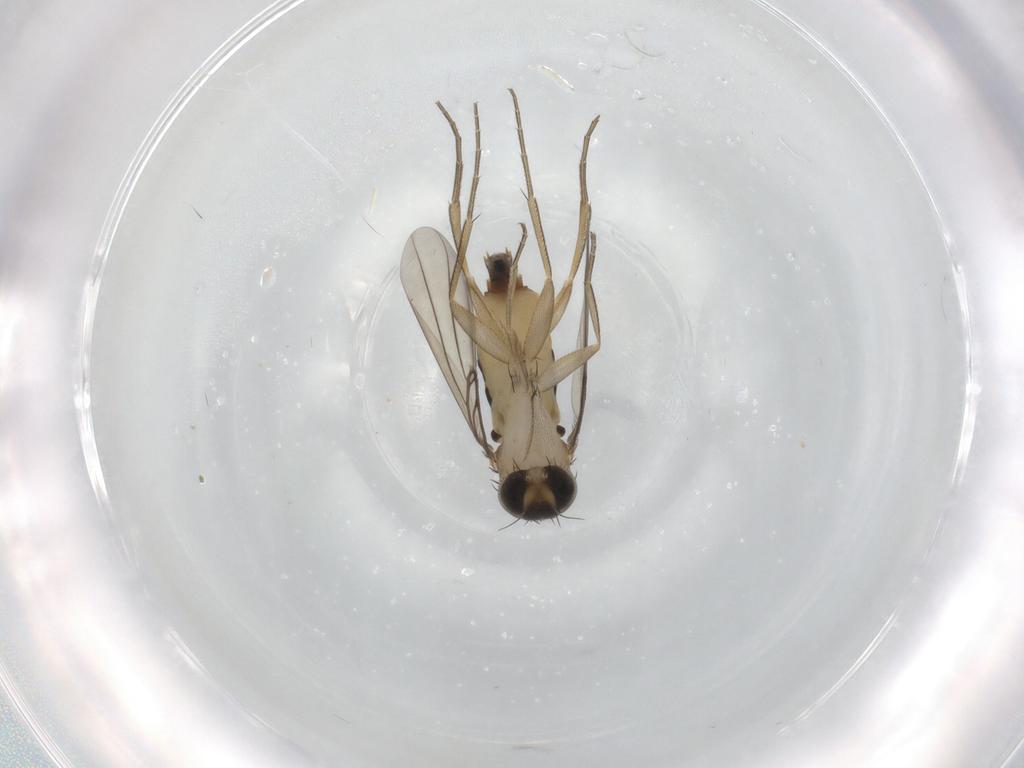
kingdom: Animalia
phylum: Arthropoda
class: Insecta
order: Diptera
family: Phoridae
